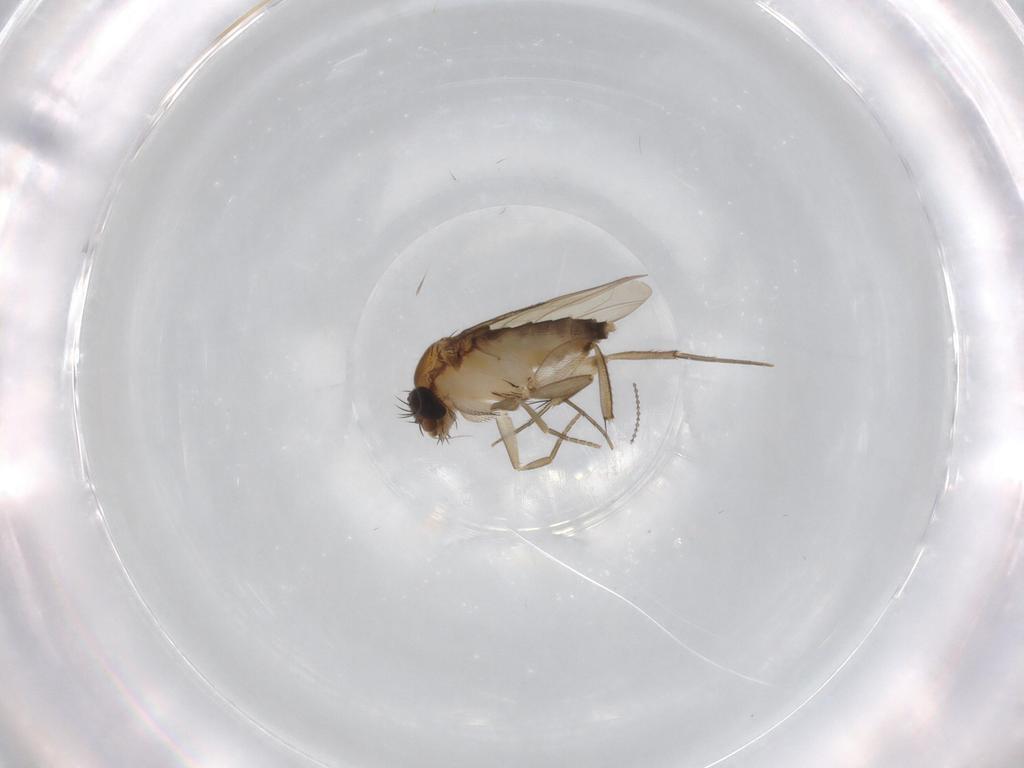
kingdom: Animalia
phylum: Arthropoda
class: Insecta
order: Diptera
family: Phoridae
